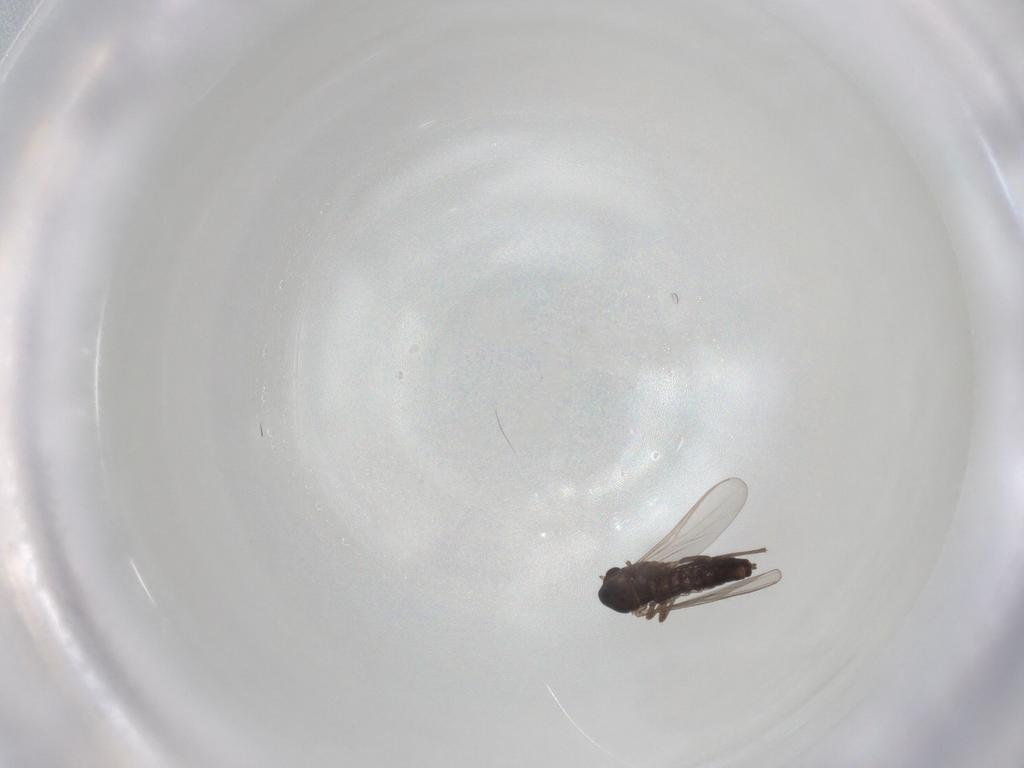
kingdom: Animalia
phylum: Arthropoda
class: Insecta
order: Diptera
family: Chironomidae
